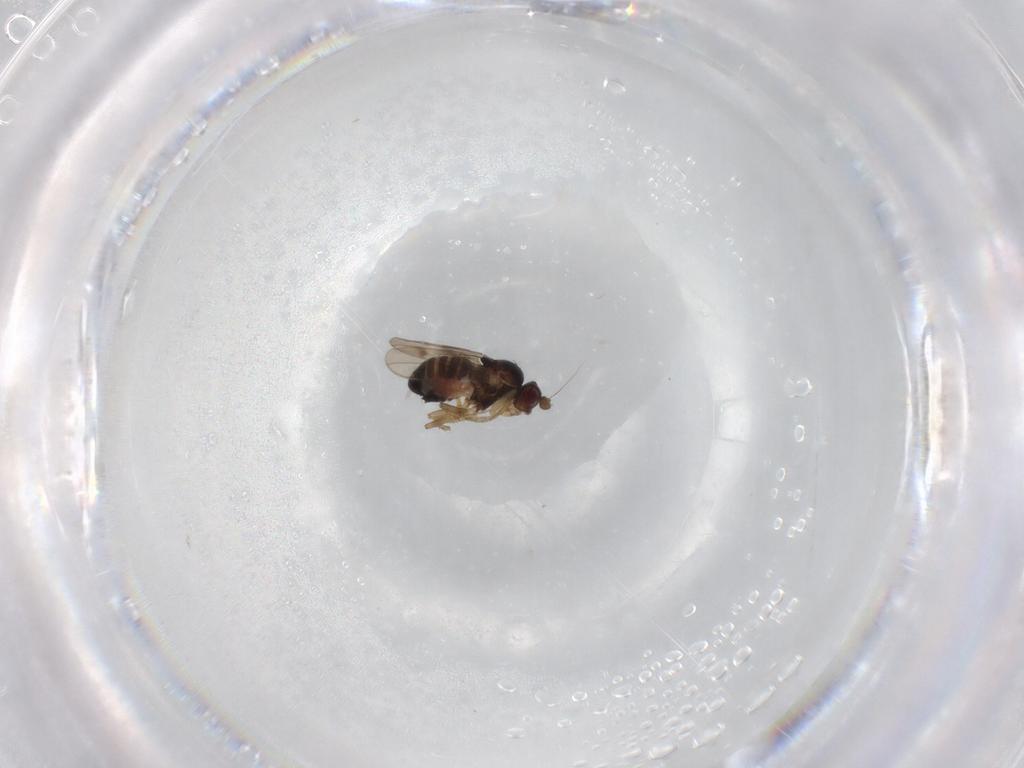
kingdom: Animalia
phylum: Arthropoda
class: Insecta
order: Diptera
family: Sphaeroceridae
